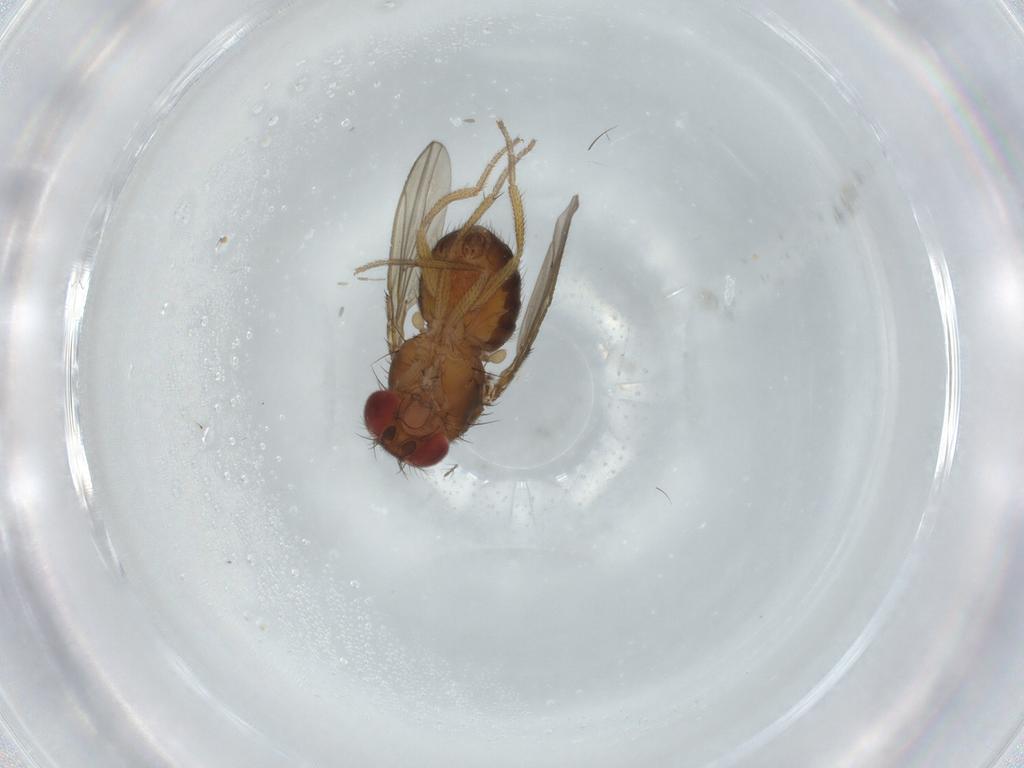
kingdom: Animalia
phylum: Arthropoda
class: Insecta
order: Diptera
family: Drosophilidae
